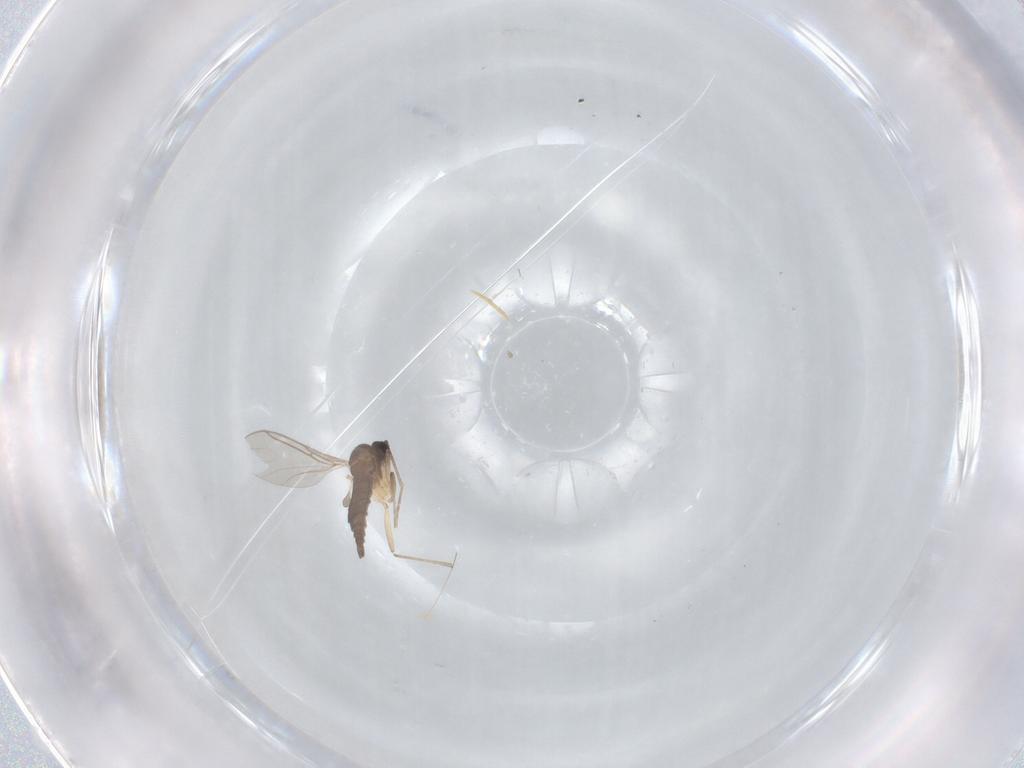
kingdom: Animalia
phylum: Arthropoda
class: Insecta
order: Diptera
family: Sciaridae
